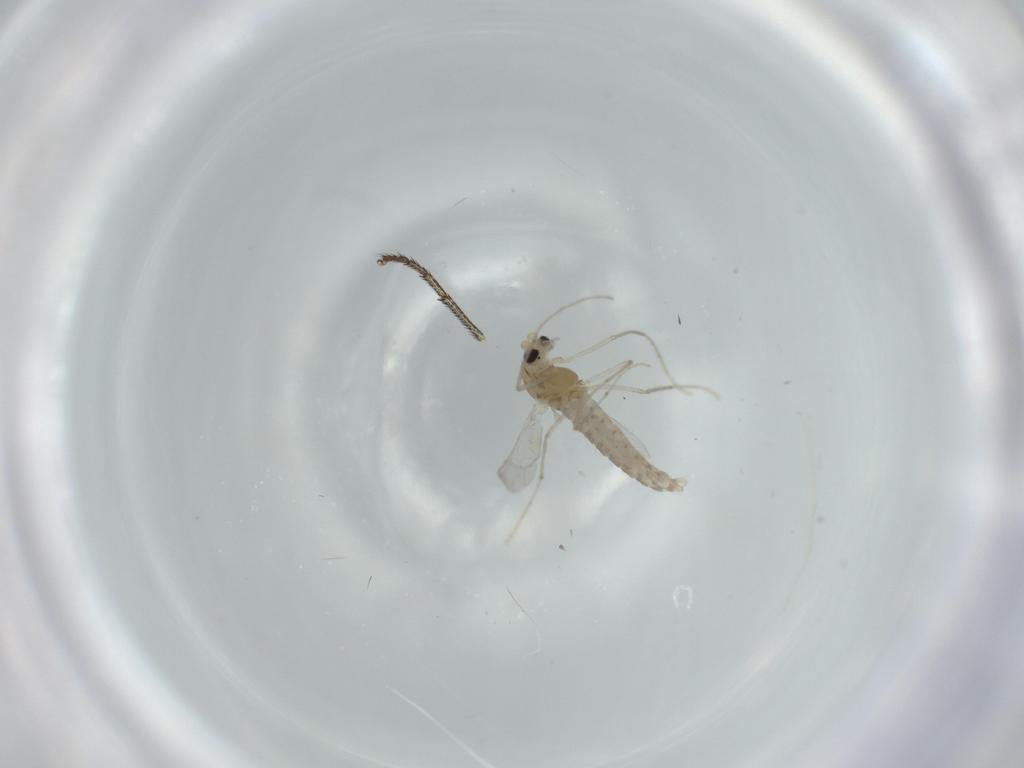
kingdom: Animalia
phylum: Arthropoda
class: Insecta
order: Diptera
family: Chironomidae
